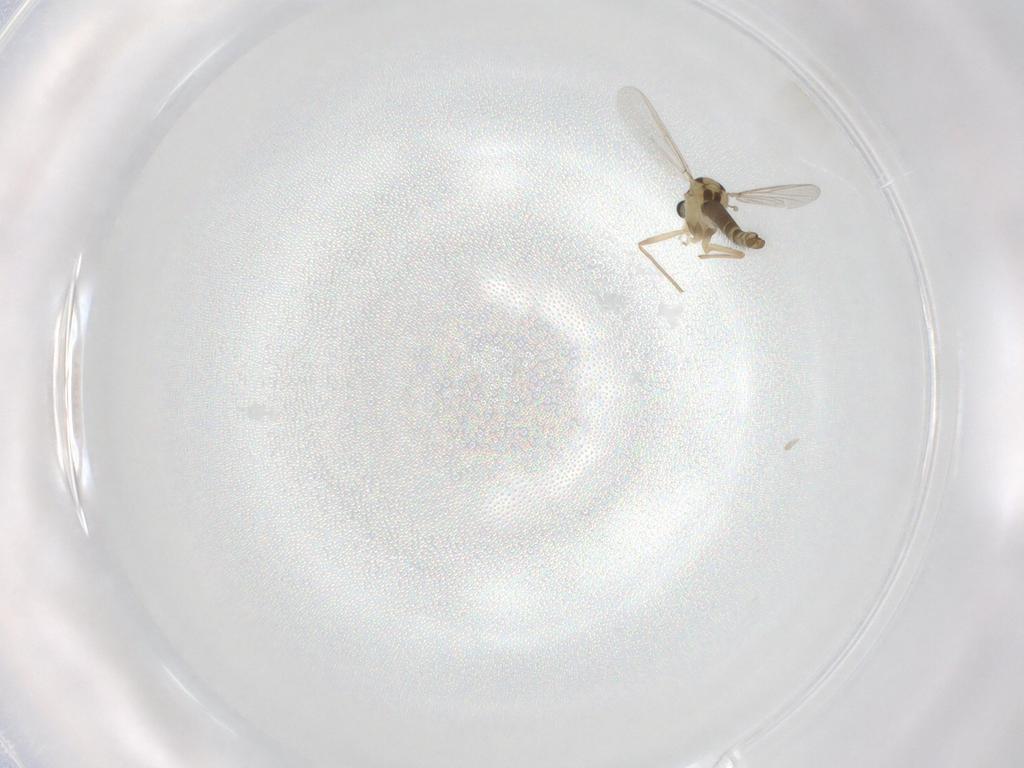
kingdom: Animalia
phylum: Arthropoda
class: Insecta
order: Diptera
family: Chironomidae
